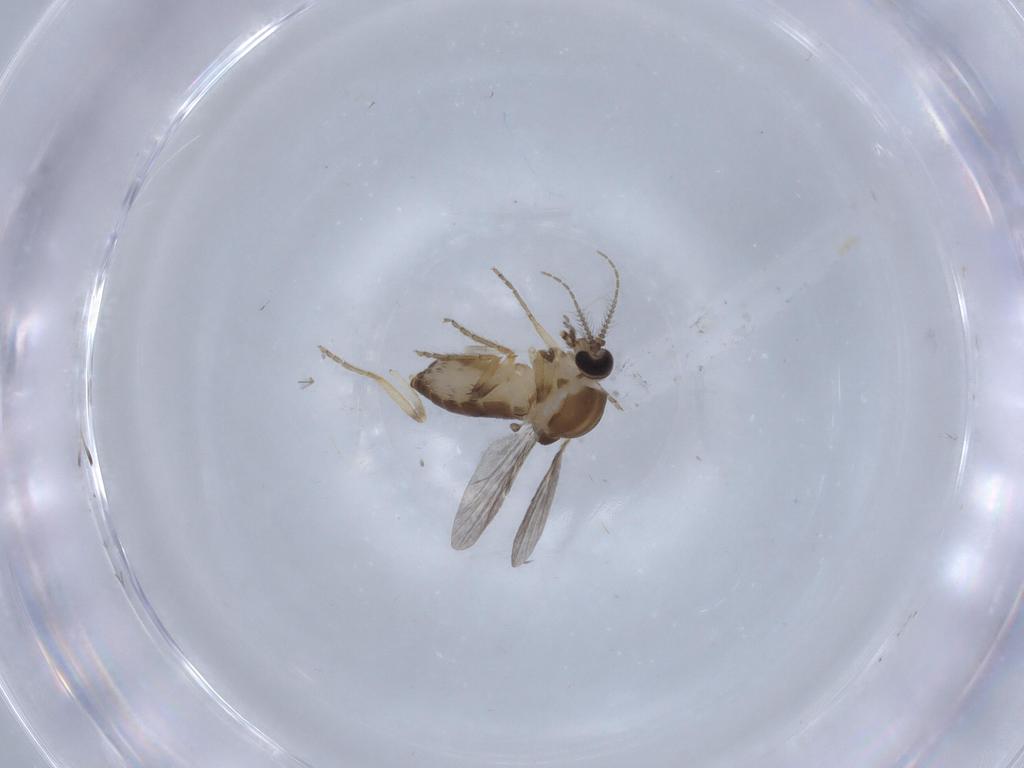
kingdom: Animalia
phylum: Arthropoda
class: Insecta
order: Diptera
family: Ceratopogonidae
